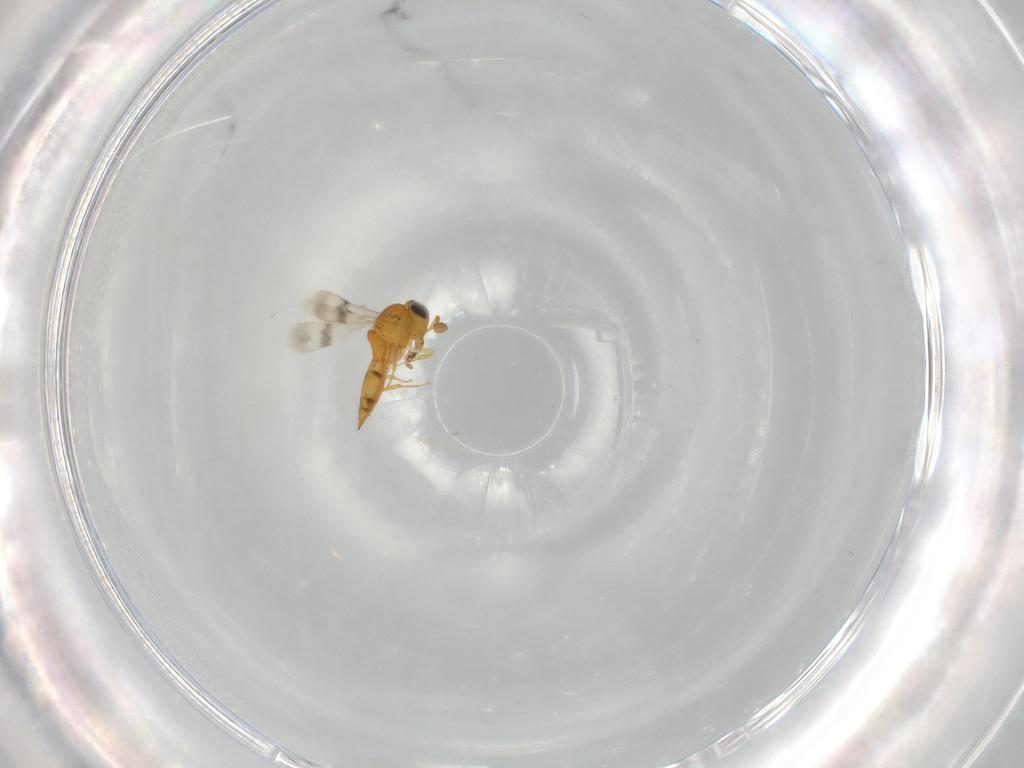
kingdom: Animalia
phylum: Arthropoda
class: Insecta
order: Hymenoptera
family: Scelionidae
